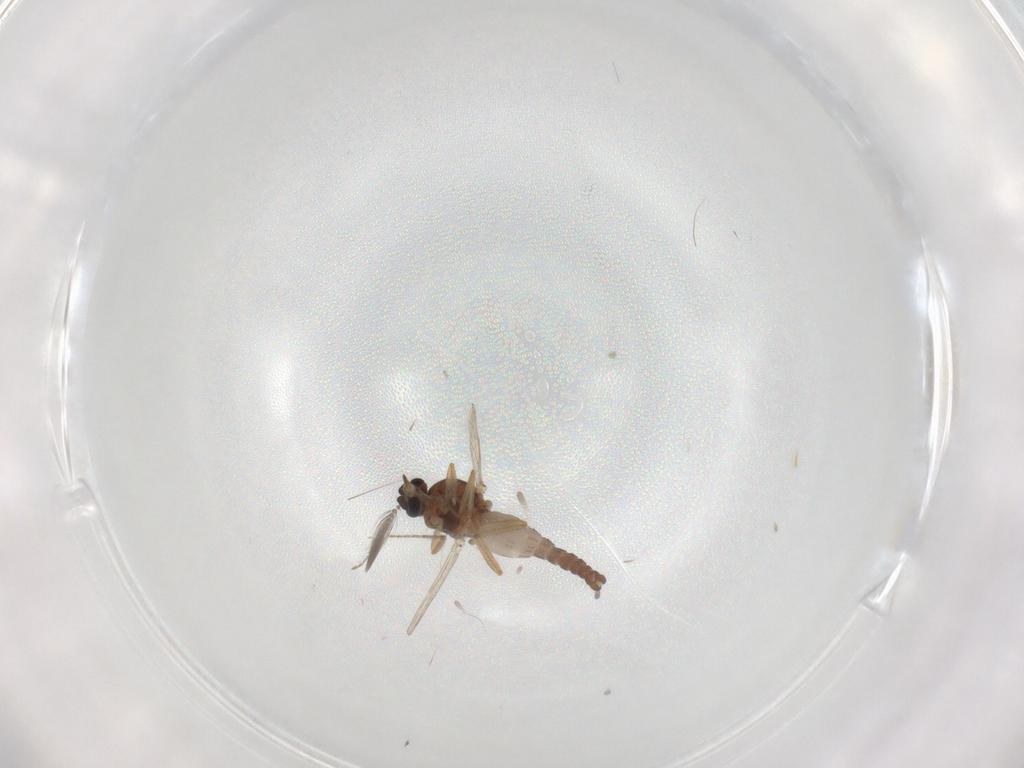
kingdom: Animalia
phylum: Arthropoda
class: Insecta
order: Diptera
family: Ceratopogonidae
